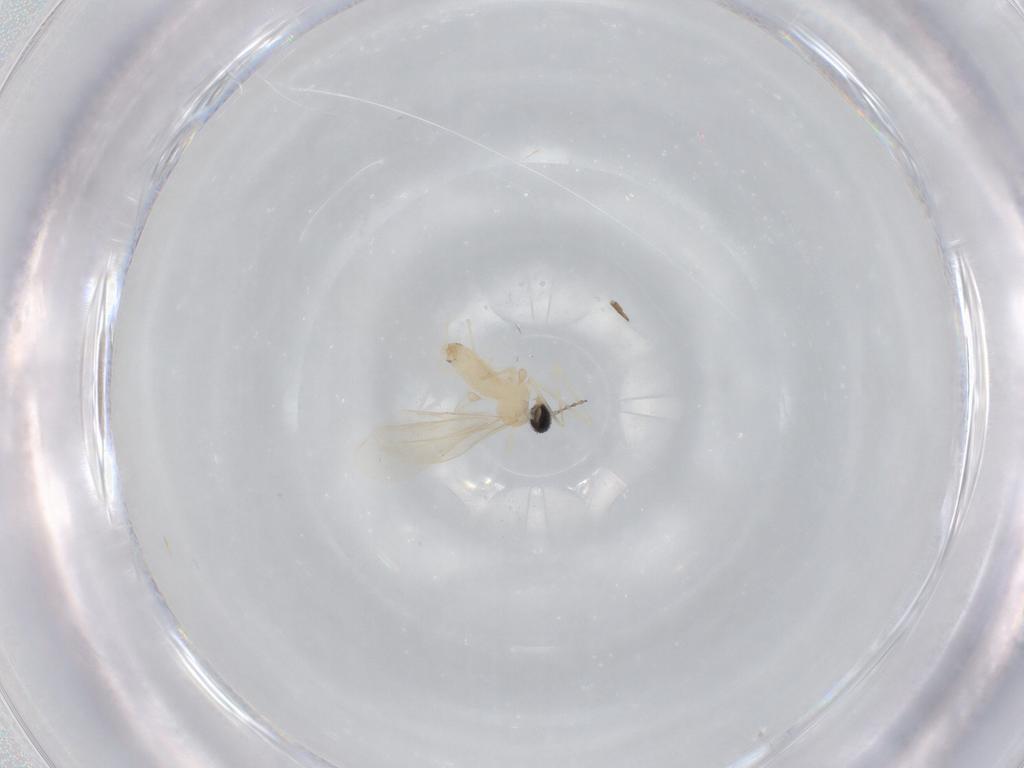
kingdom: Animalia
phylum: Arthropoda
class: Insecta
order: Diptera
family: Cecidomyiidae
